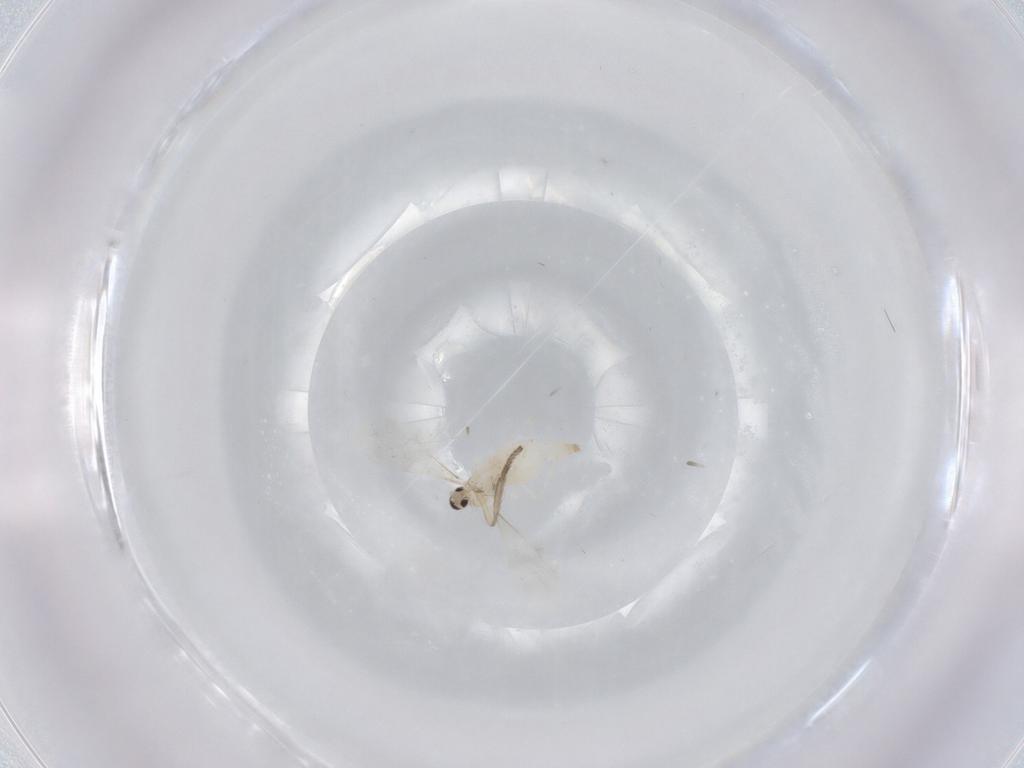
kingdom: Animalia
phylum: Arthropoda
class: Insecta
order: Diptera
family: Cecidomyiidae
